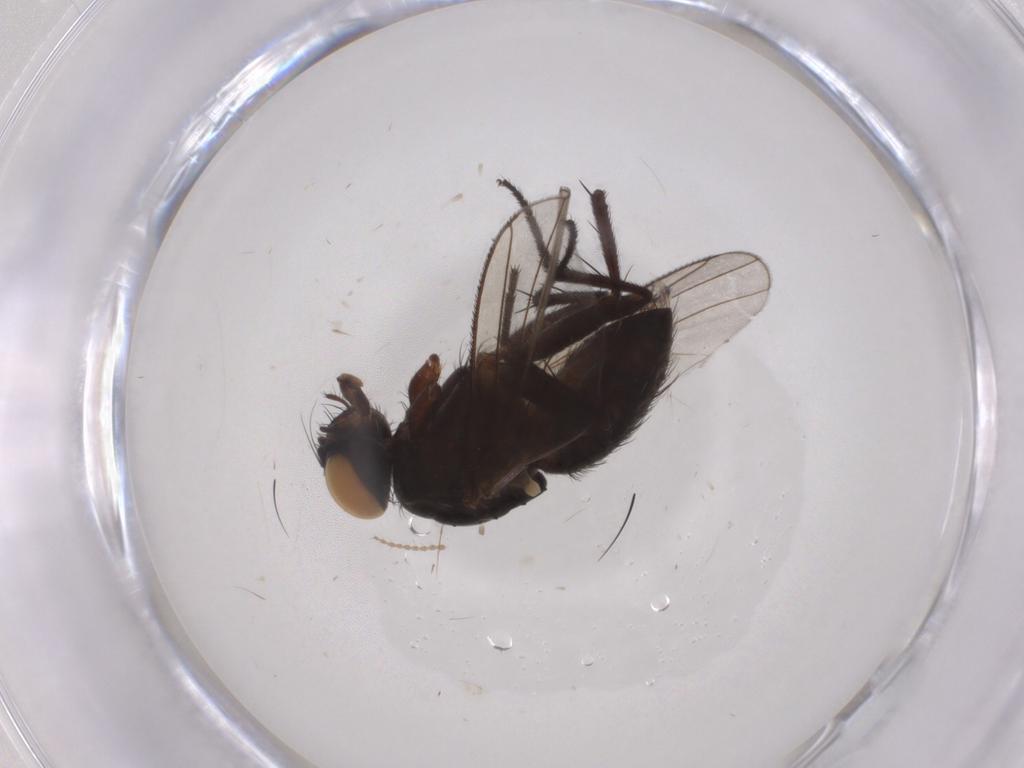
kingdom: Animalia
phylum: Arthropoda
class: Insecta
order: Diptera
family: Muscidae
